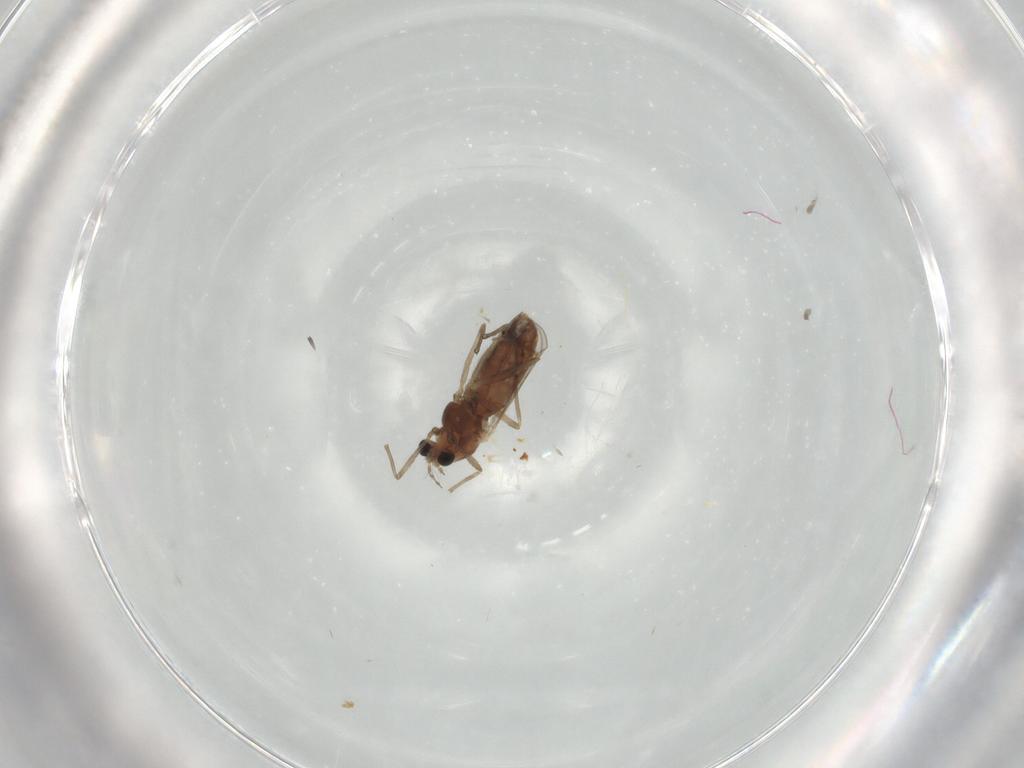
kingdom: Animalia
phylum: Arthropoda
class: Insecta
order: Diptera
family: Chironomidae
